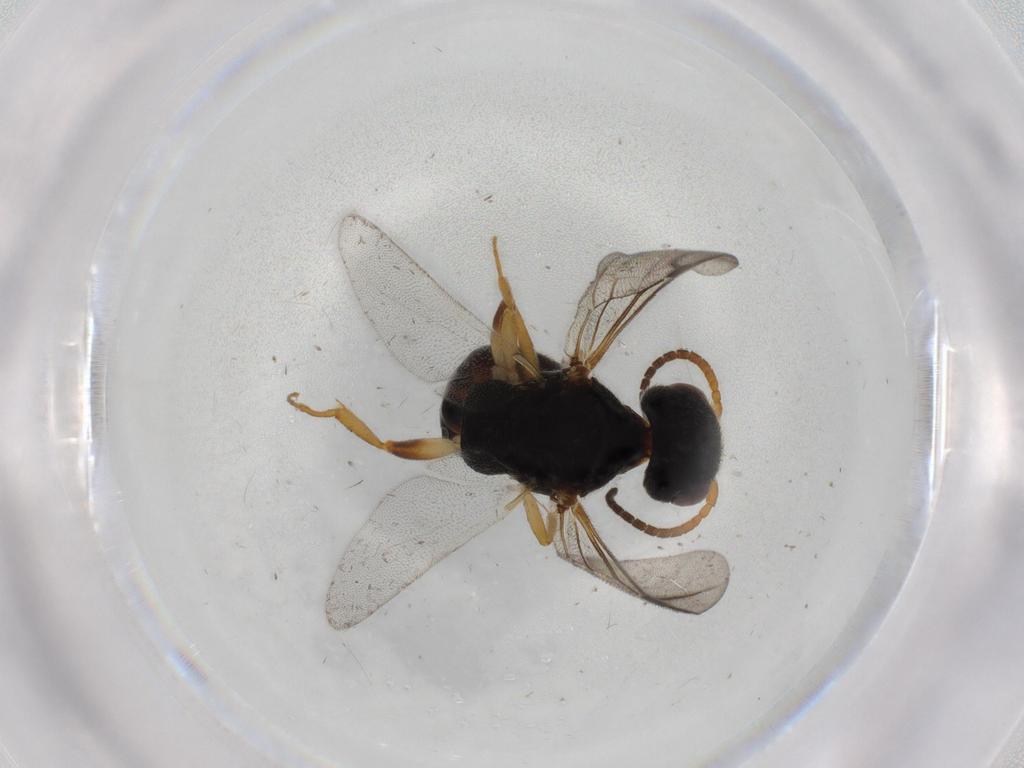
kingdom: Animalia
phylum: Arthropoda
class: Insecta
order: Hymenoptera
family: Bethylidae
